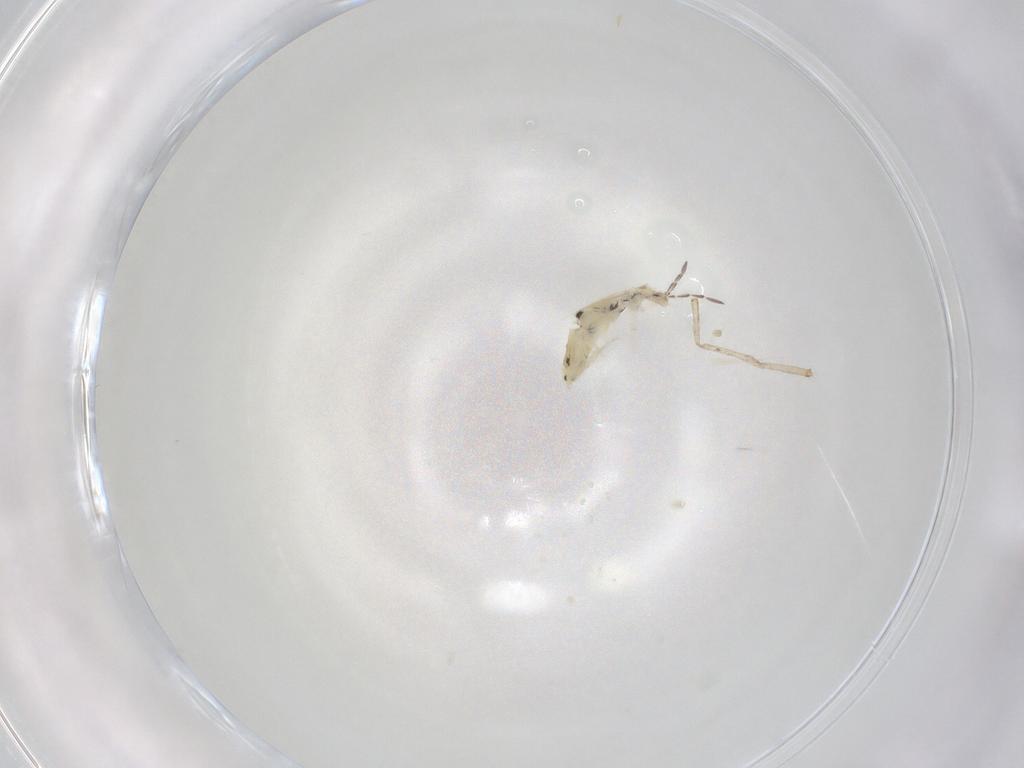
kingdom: Animalia
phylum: Arthropoda
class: Collembola
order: Entomobryomorpha
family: Entomobryidae
